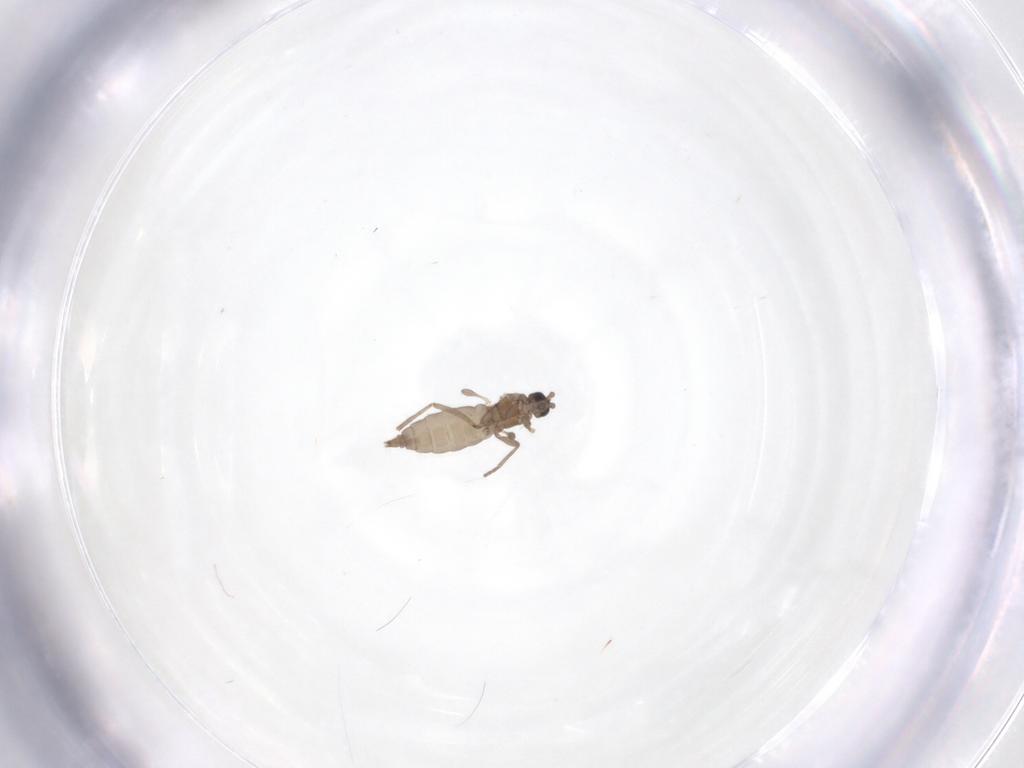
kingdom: Animalia
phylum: Arthropoda
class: Insecta
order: Diptera
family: Sciaridae
